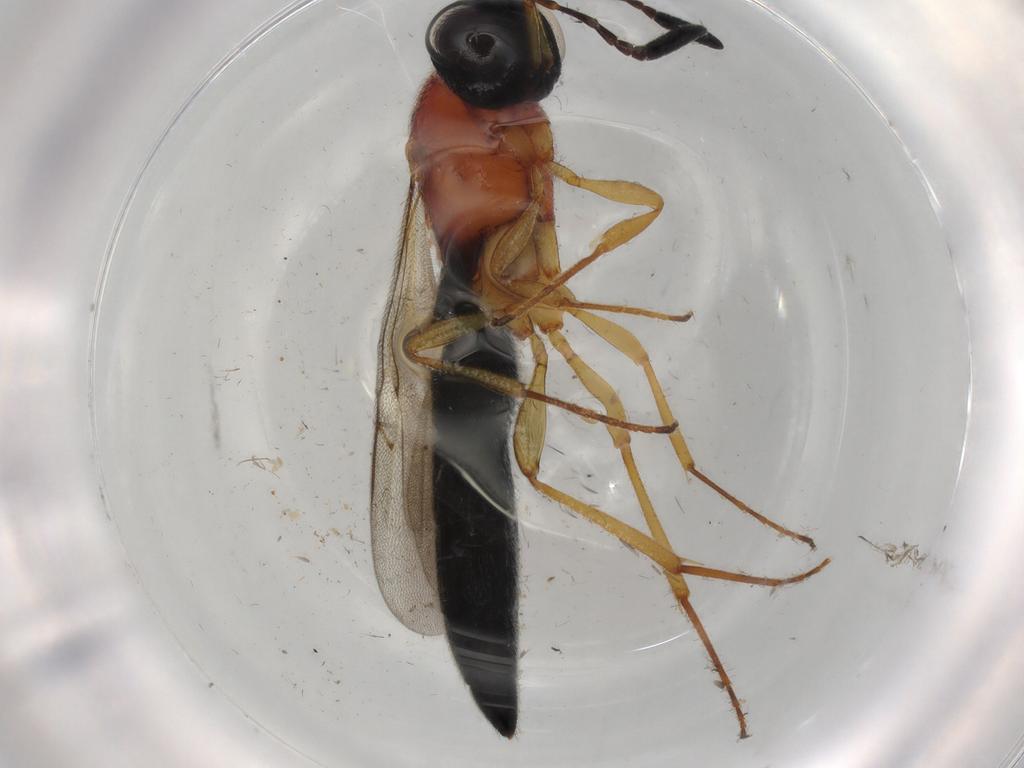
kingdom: Animalia
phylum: Arthropoda
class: Insecta
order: Hymenoptera
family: Formicidae
